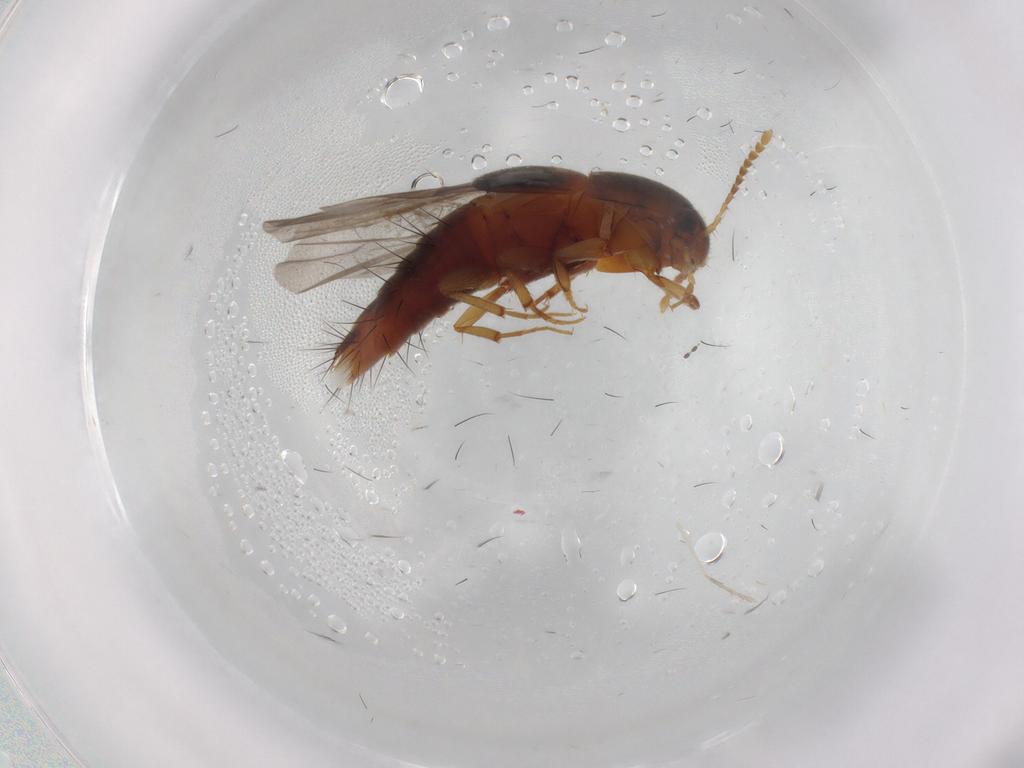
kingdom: Animalia
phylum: Arthropoda
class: Insecta
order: Coleoptera
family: Staphylinidae
